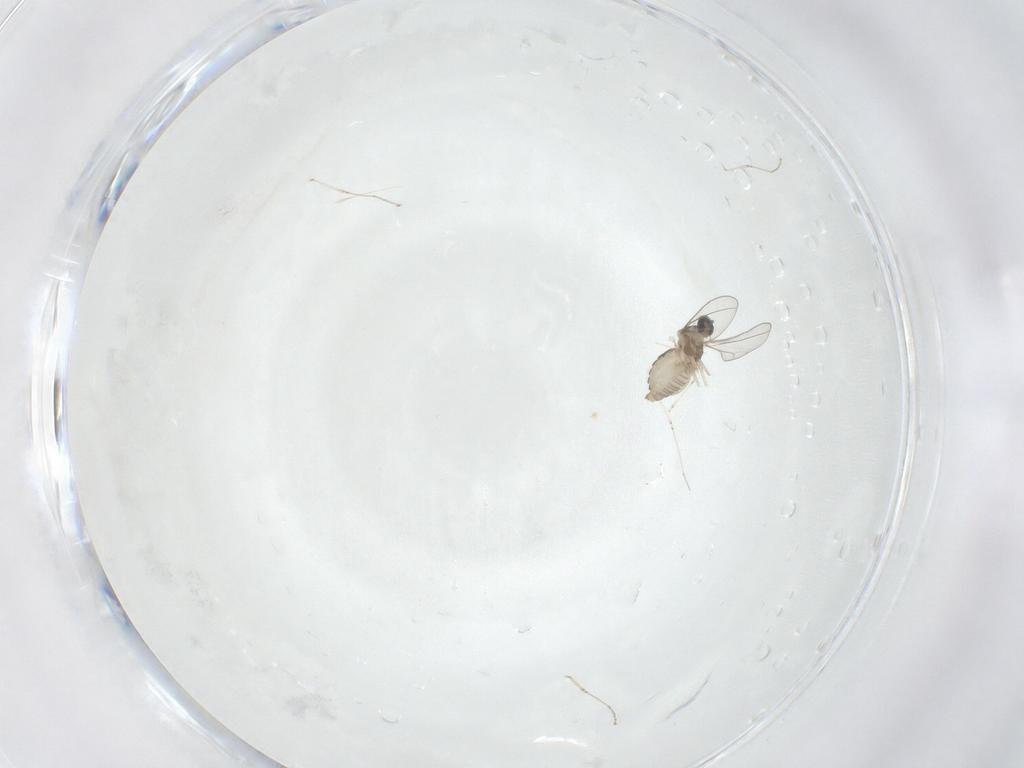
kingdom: Animalia
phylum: Arthropoda
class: Insecta
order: Diptera
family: Cecidomyiidae
